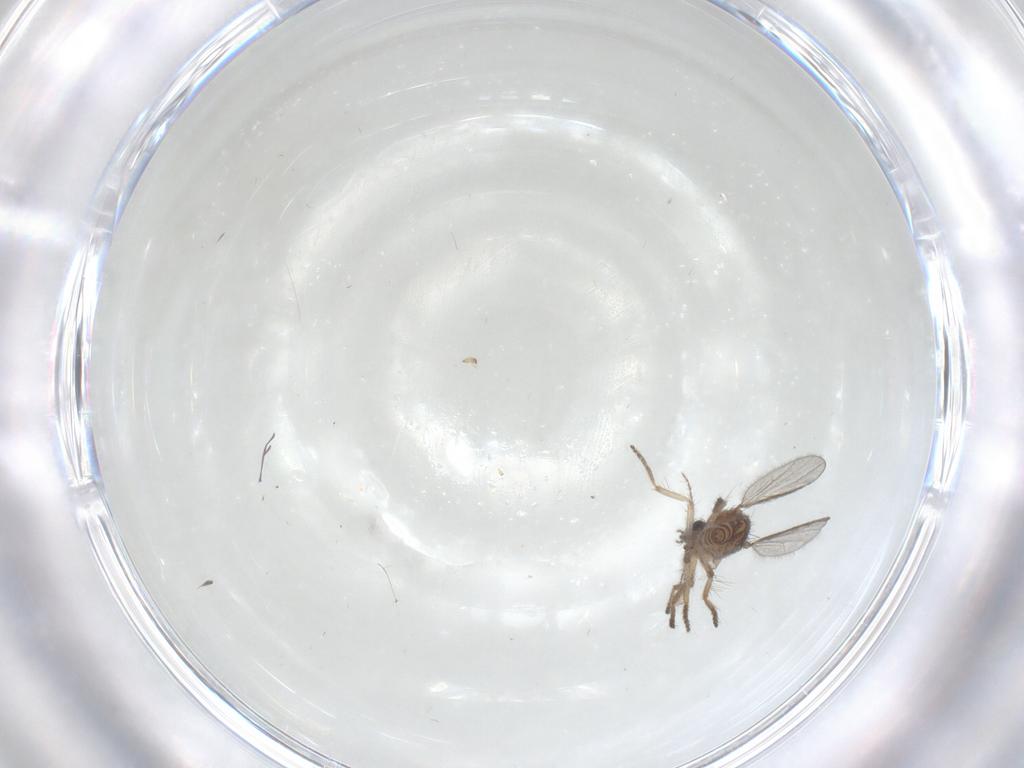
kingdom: Animalia
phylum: Arthropoda
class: Insecta
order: Diptera
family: Ceratopogonidae
